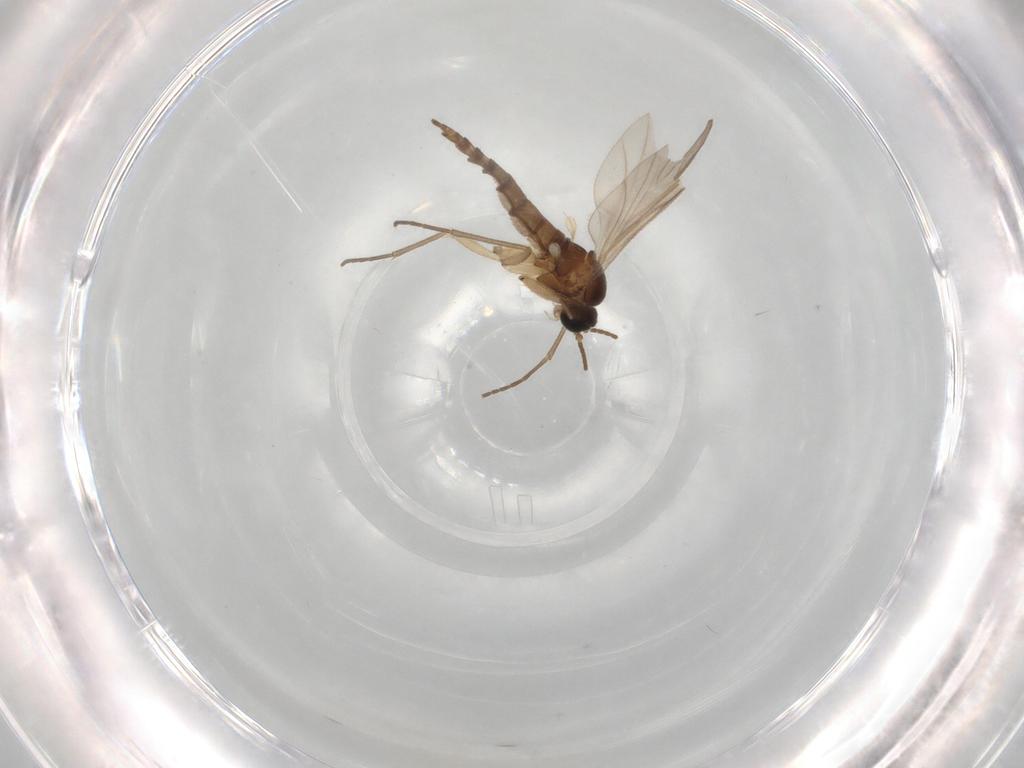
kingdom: Animalia
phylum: Arthropoda
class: Insecta
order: Diptera
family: Sciaridae
